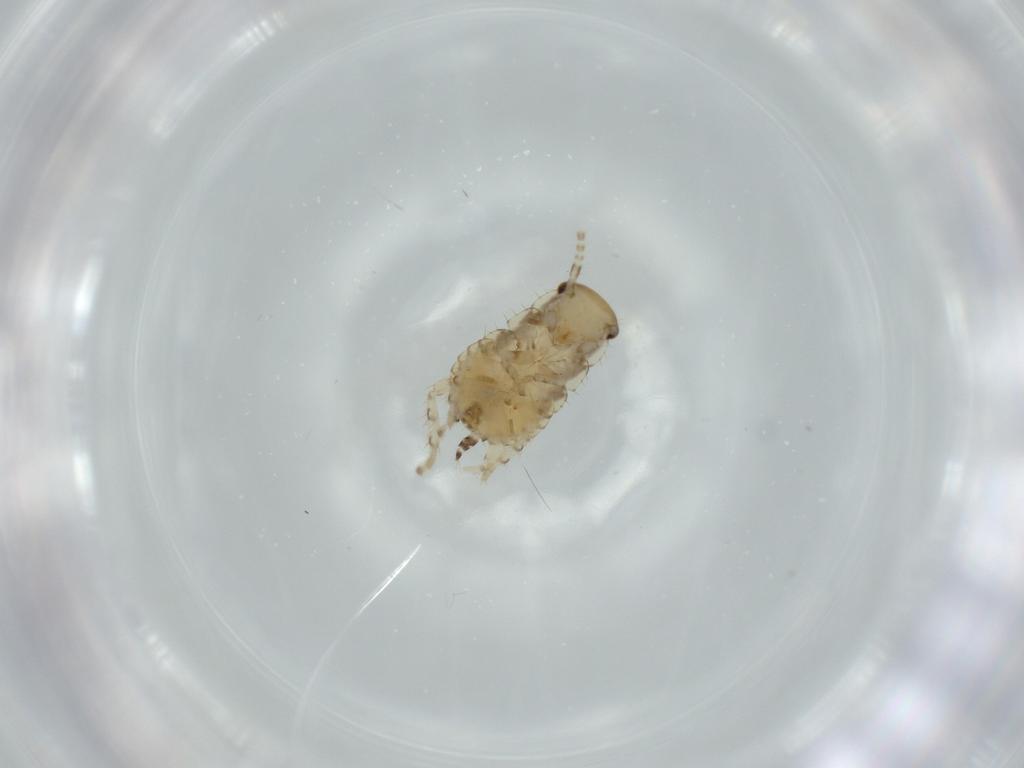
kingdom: Animalia
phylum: Arthropoda
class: Insecta
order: Blattodea
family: Ectobiidae
